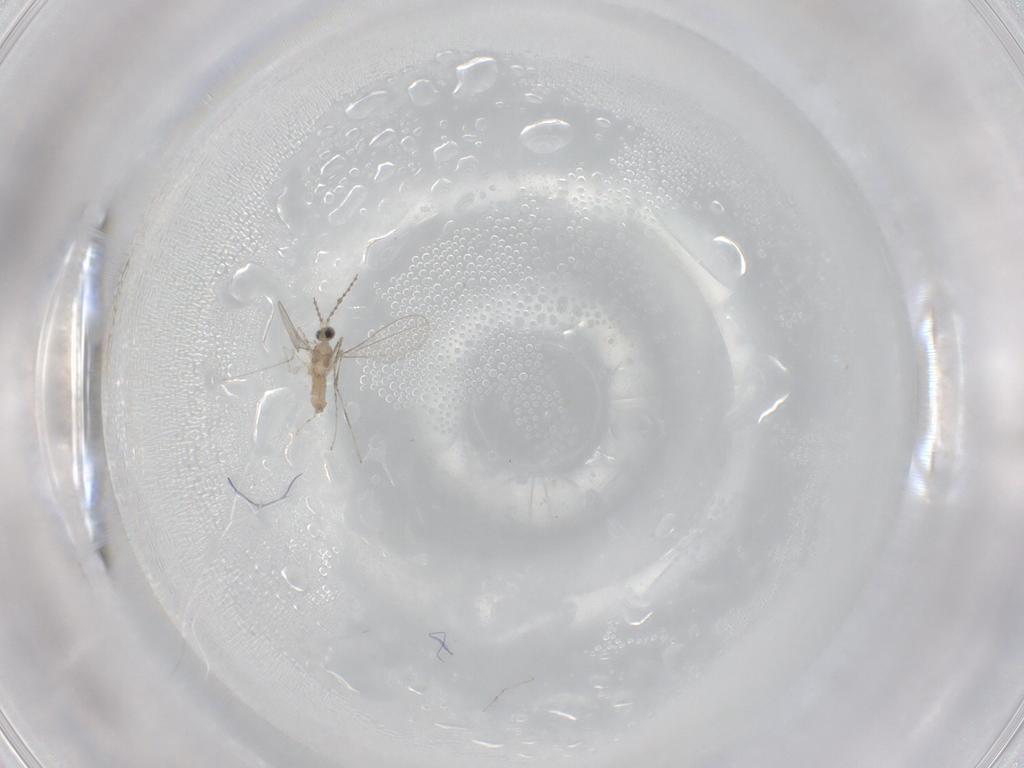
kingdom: Animalia
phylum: Arthropoda
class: Insecta
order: Diptera
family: Cecidomyiidae
